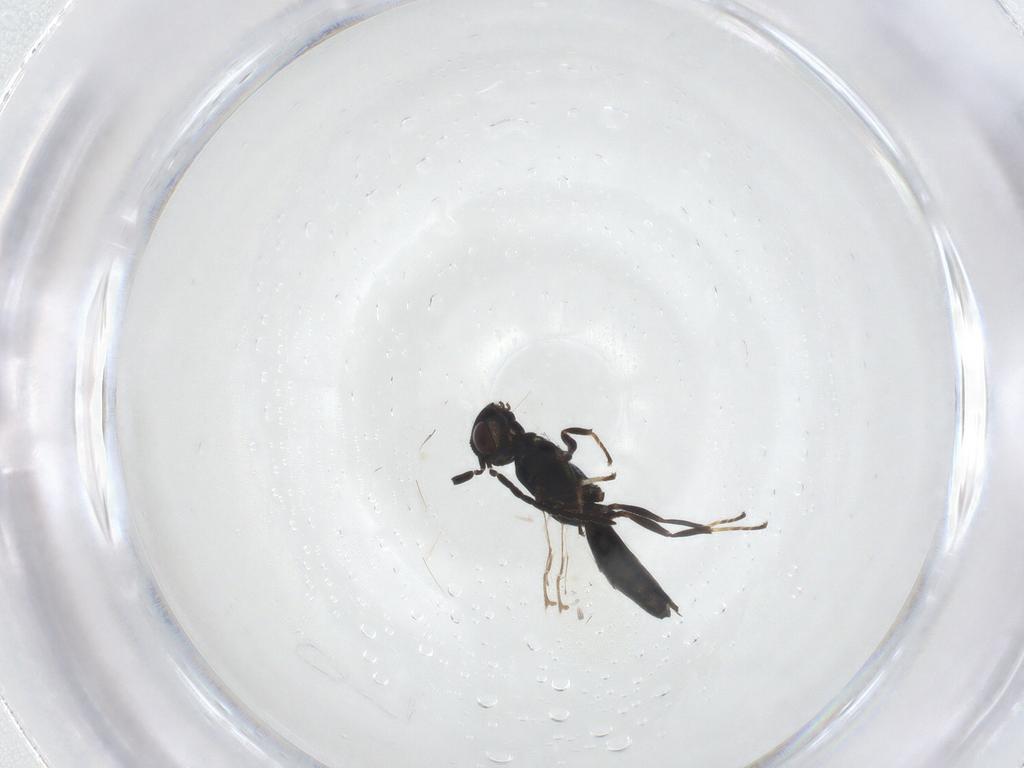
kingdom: Animalia
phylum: Arthropoda
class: Insecta
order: Hymenoptera
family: Eulophidae
